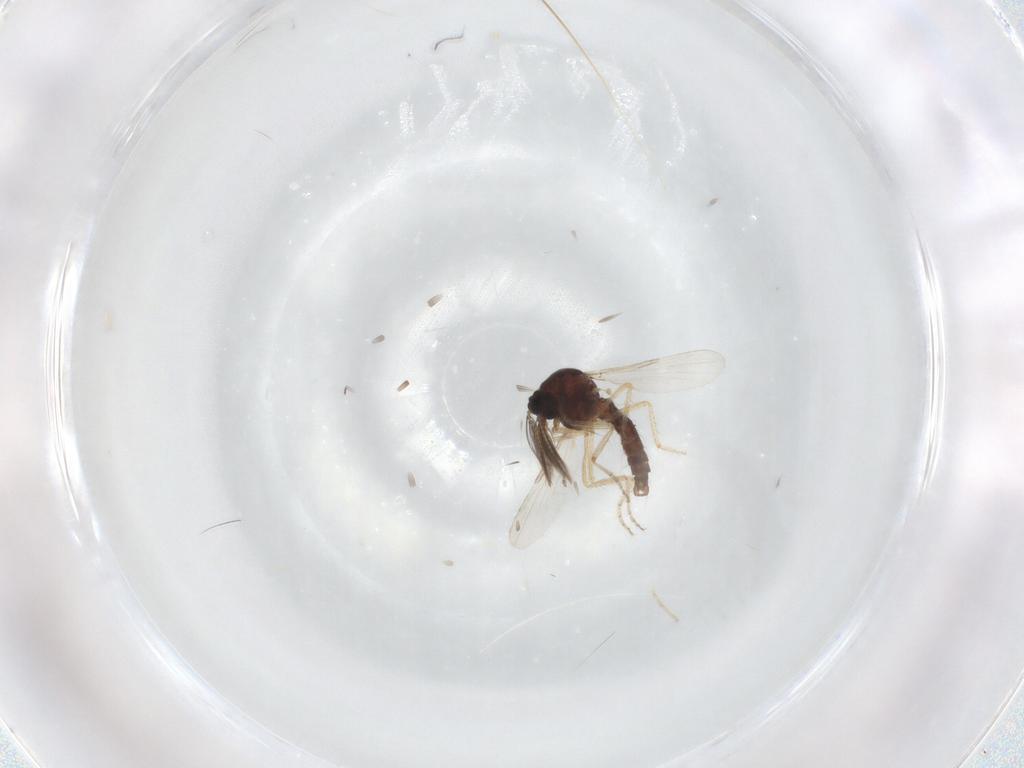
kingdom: Animalia
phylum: Arthropoda
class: Insecta
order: Diptera
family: Ceratopogonidae
